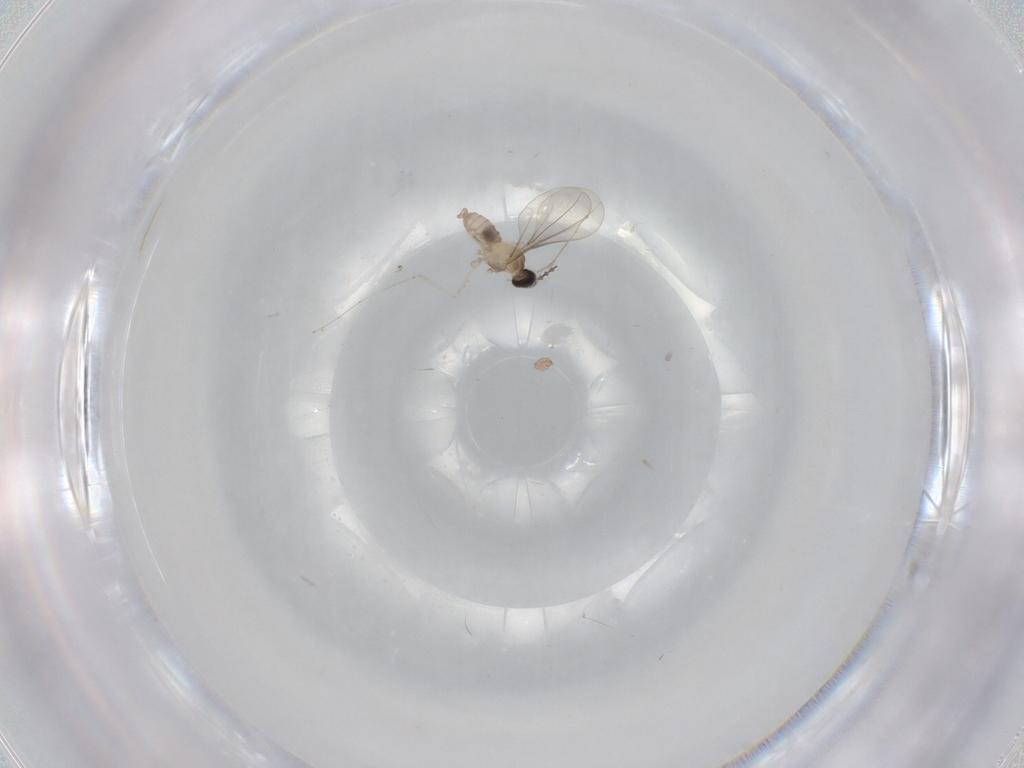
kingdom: Animalia
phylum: Arthropoda
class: Insecta
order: Diptera
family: Cecidomyiidae
